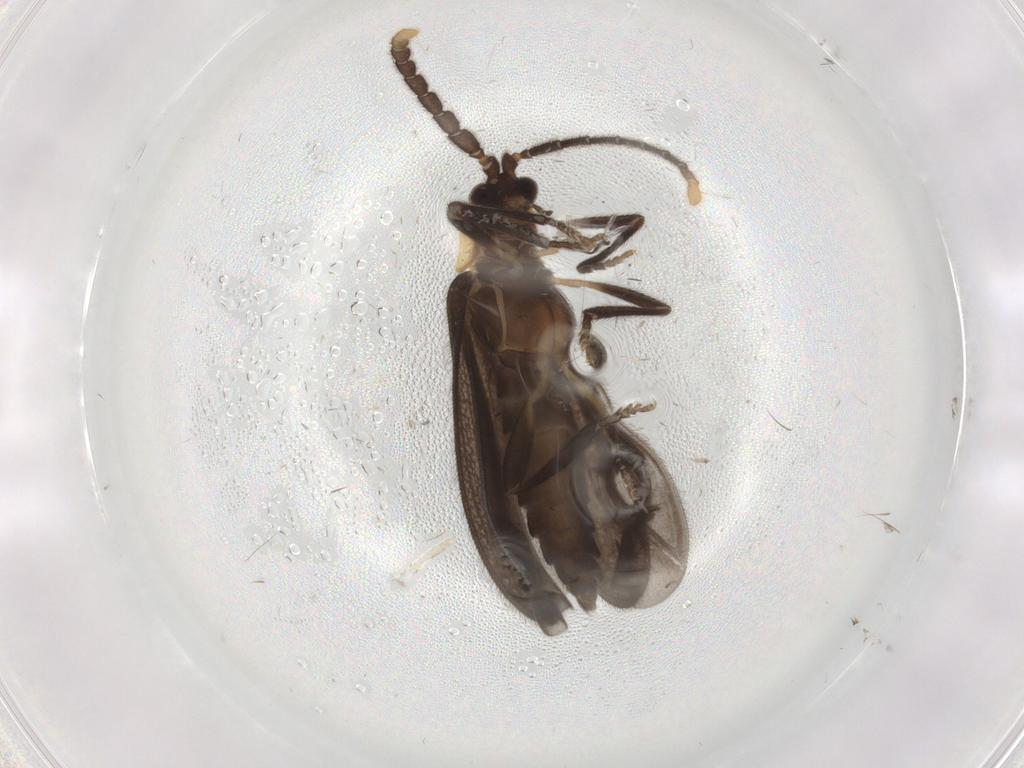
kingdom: Animalia
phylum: Arthropoda
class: Insecta
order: Coleoptera
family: Lycidae
